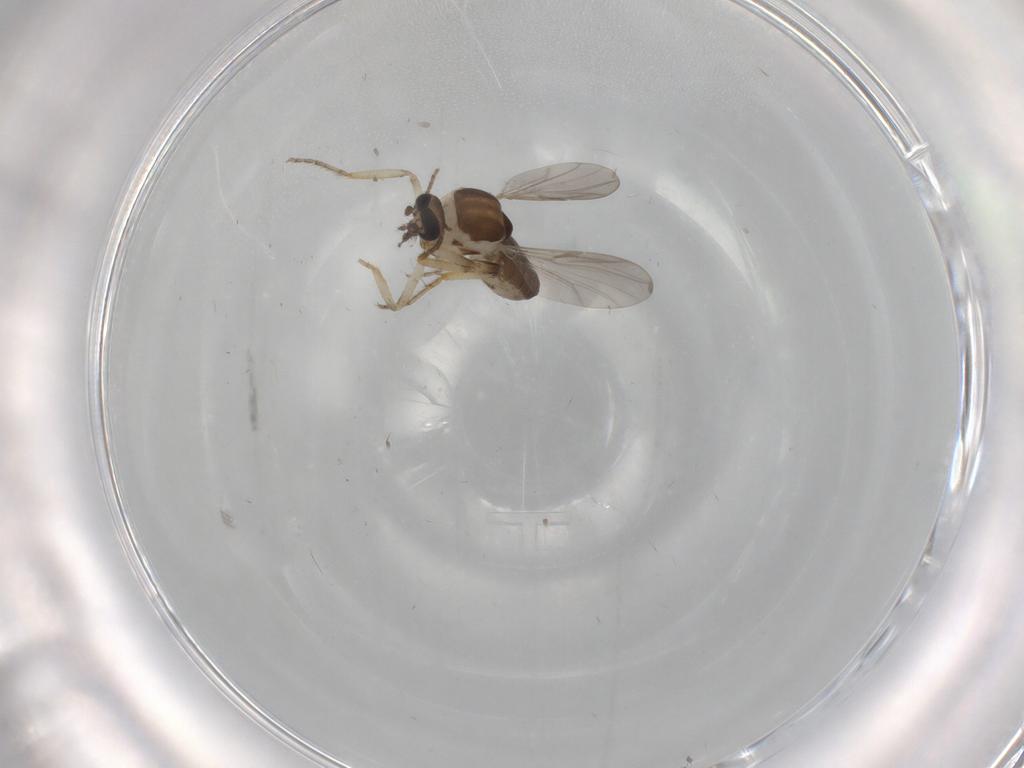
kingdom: Animalia
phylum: Arthropoda
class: Insecta
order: Diptera
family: Ceratopogonidae
